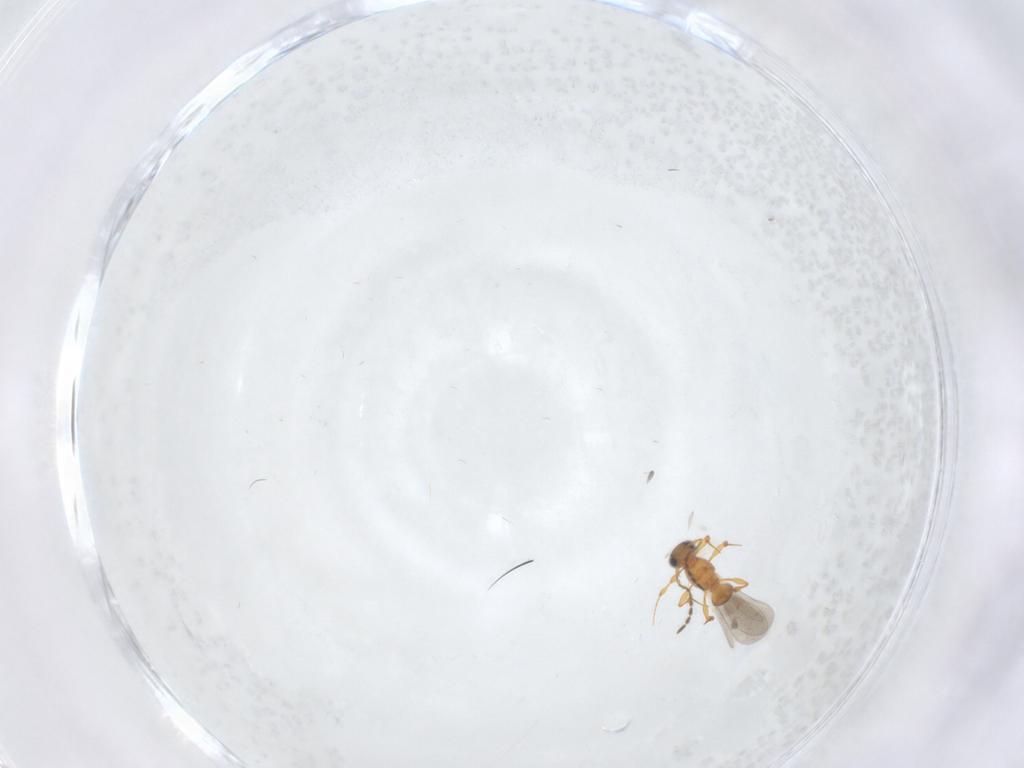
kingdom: Animalia
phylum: Arthropoda
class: Insecta
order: Hymenoptera
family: Platygastridae
